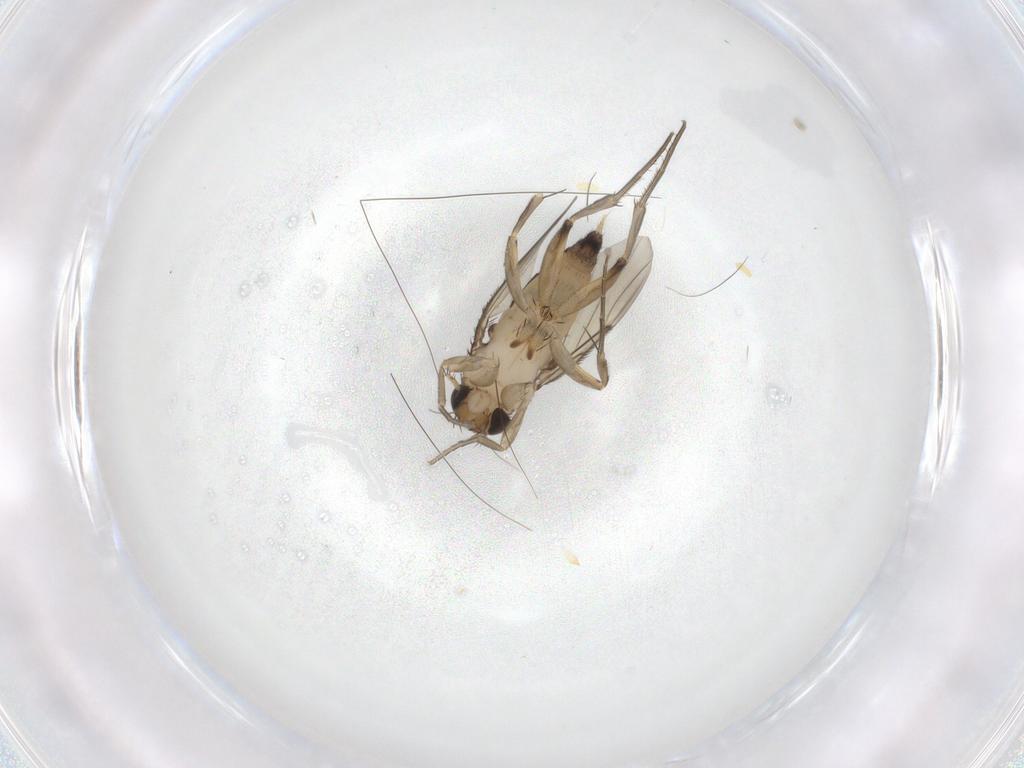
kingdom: Animalia
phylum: Arthropoda
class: Insecta
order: Diptera
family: Phoridae
